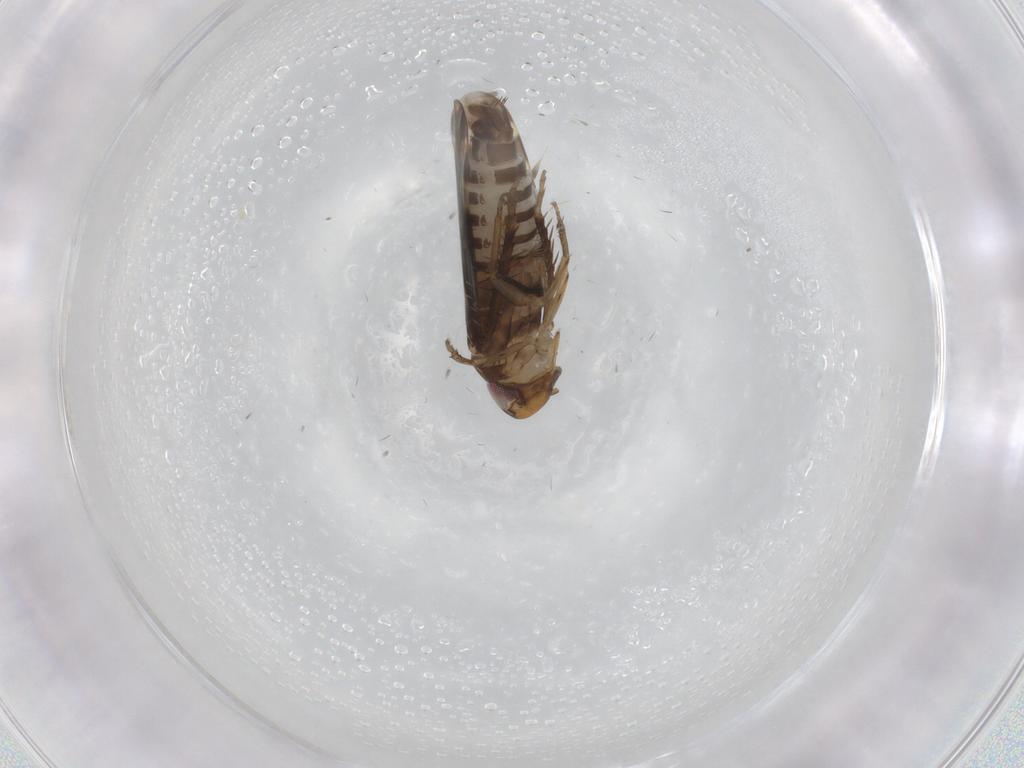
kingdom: Animalia
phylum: Arthropoda
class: Insecta
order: Hemiptera
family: Cicadellidae
